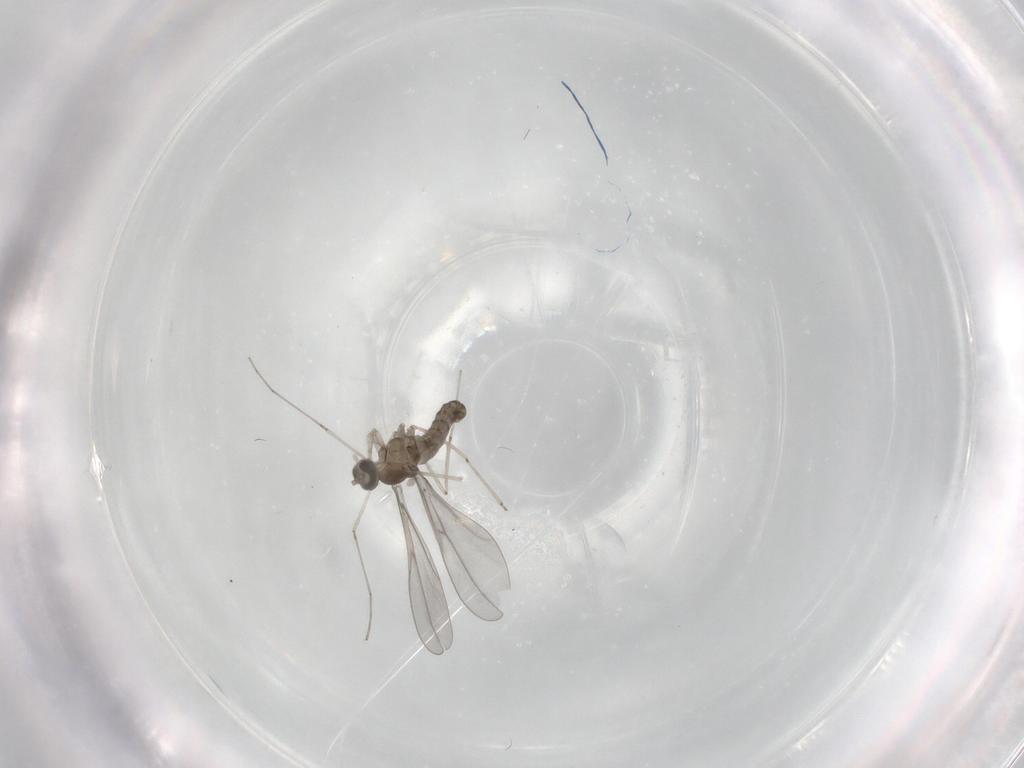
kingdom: Animalia
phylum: Arthropoda
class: Insecta
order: Diptera
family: Cecidomyiidae
